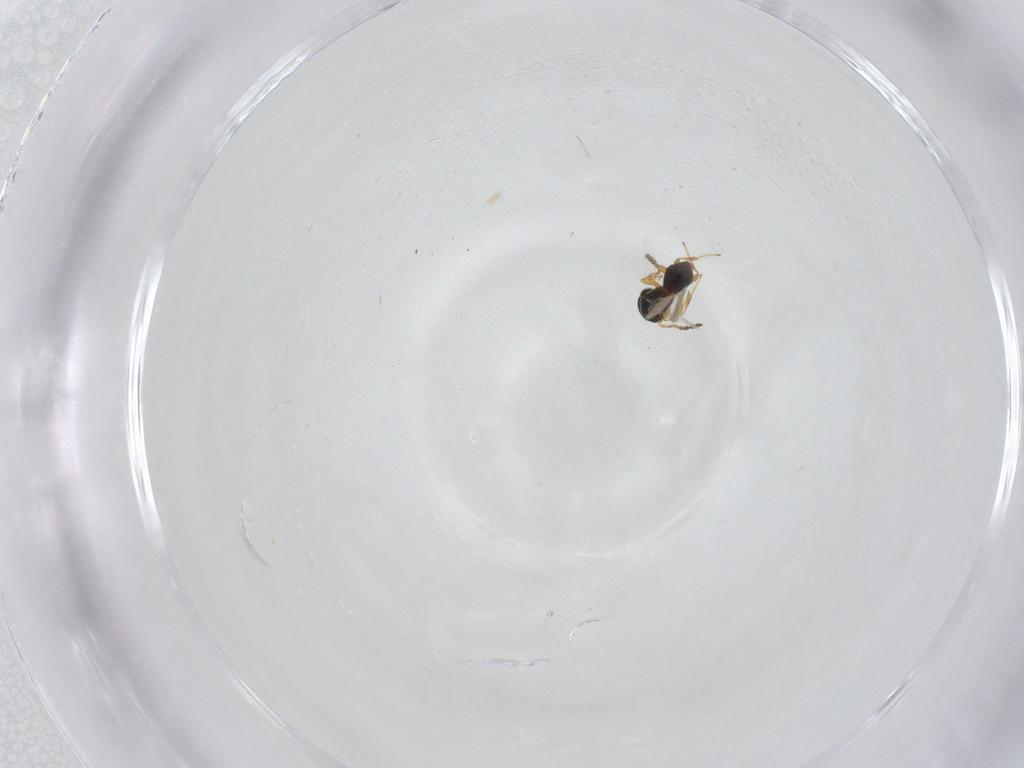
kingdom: Animalia
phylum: Arthropoda
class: Insecta
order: Hymenoptera
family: Platygastridae
